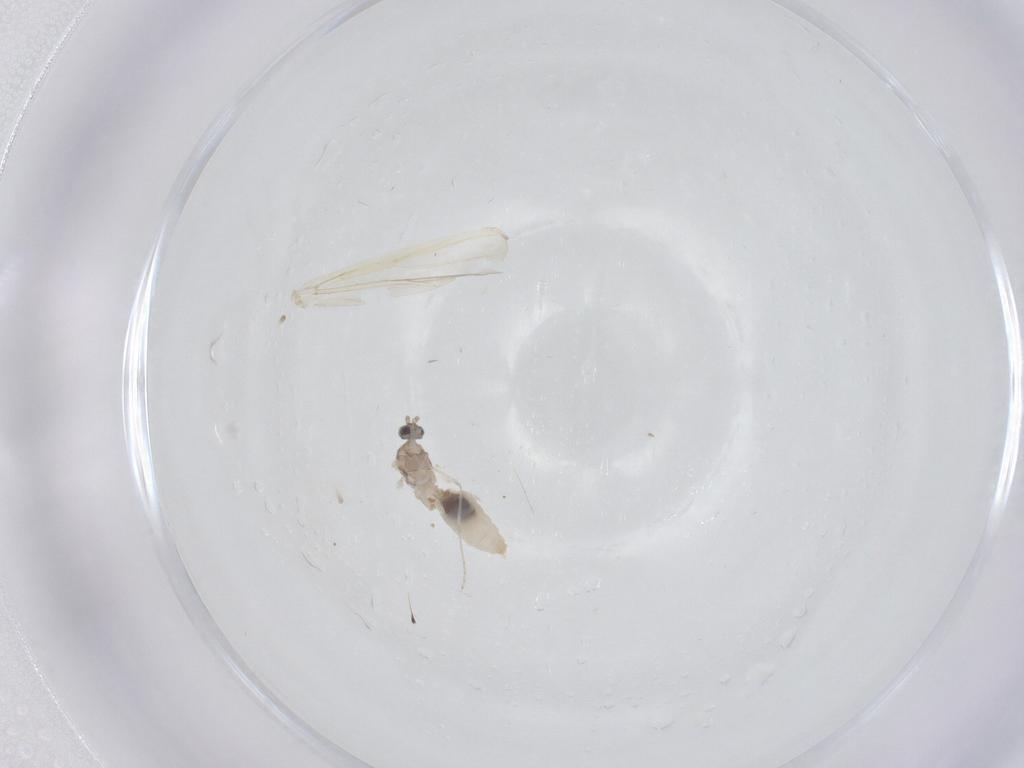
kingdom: Animalia
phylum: Arthropoda
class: Insecta
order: Diptera
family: Cecidomyiidae
